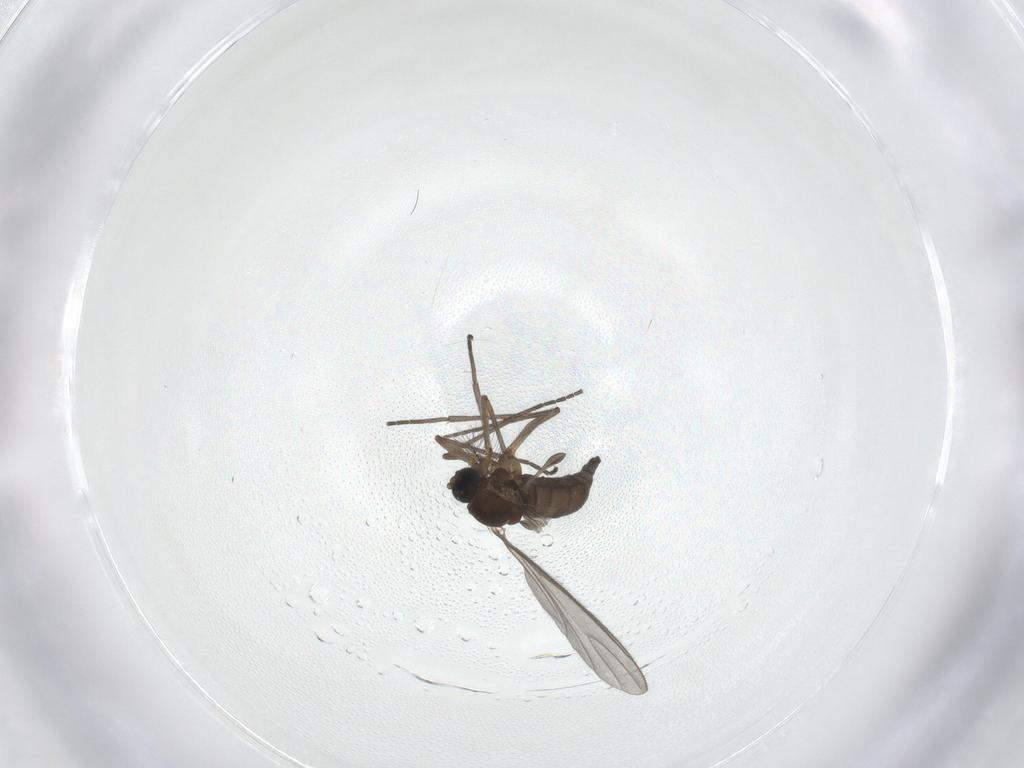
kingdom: Animalia
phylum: Arthropoda
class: Insecta
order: Diptera
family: Sciaridae
